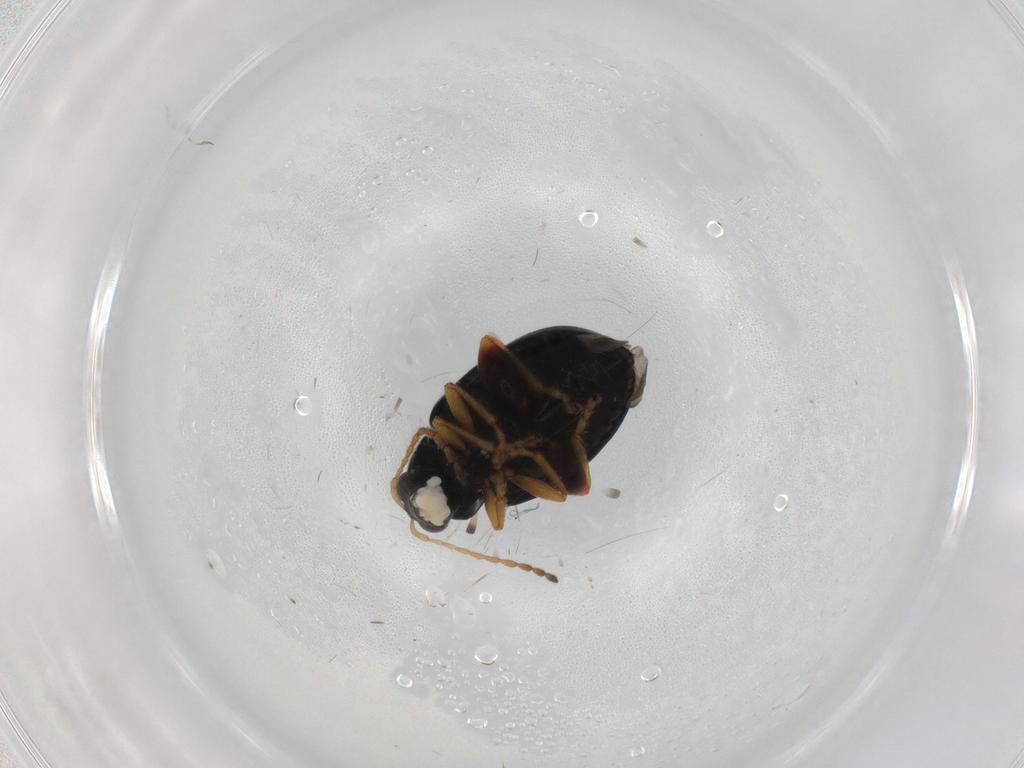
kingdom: Animalia
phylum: Arthropoda
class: Insecta
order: Coleoptera
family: Chrysomelidae
